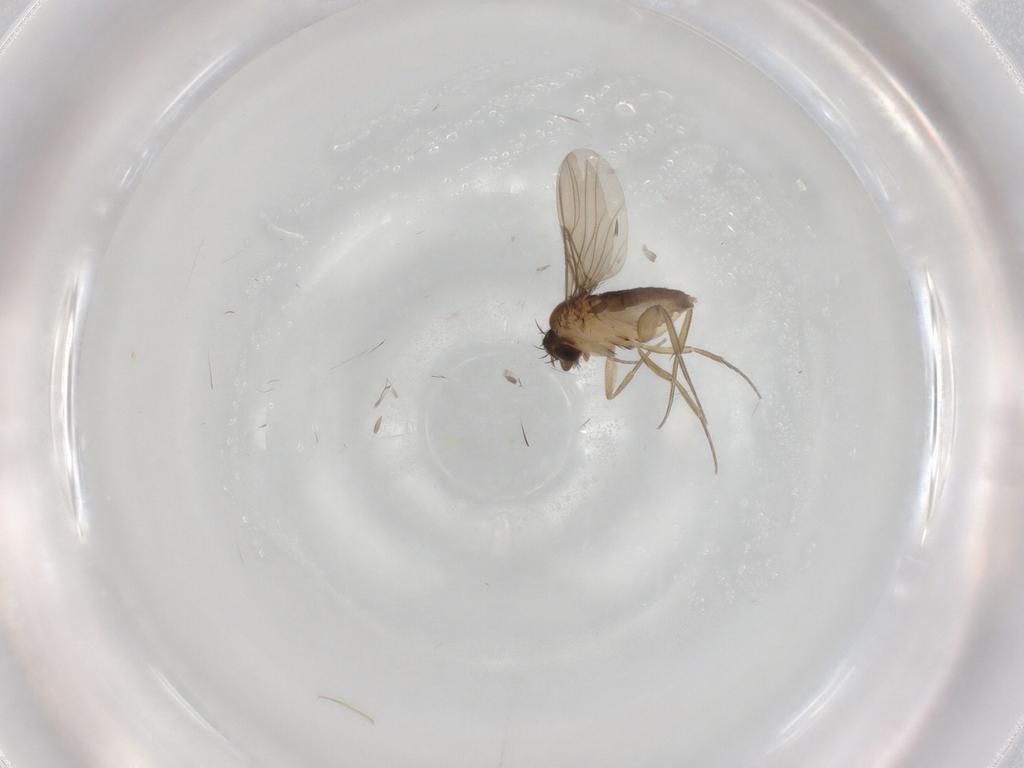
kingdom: Animalia
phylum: Arthropoda
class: Insecta
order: Diptera
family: Phoridae
